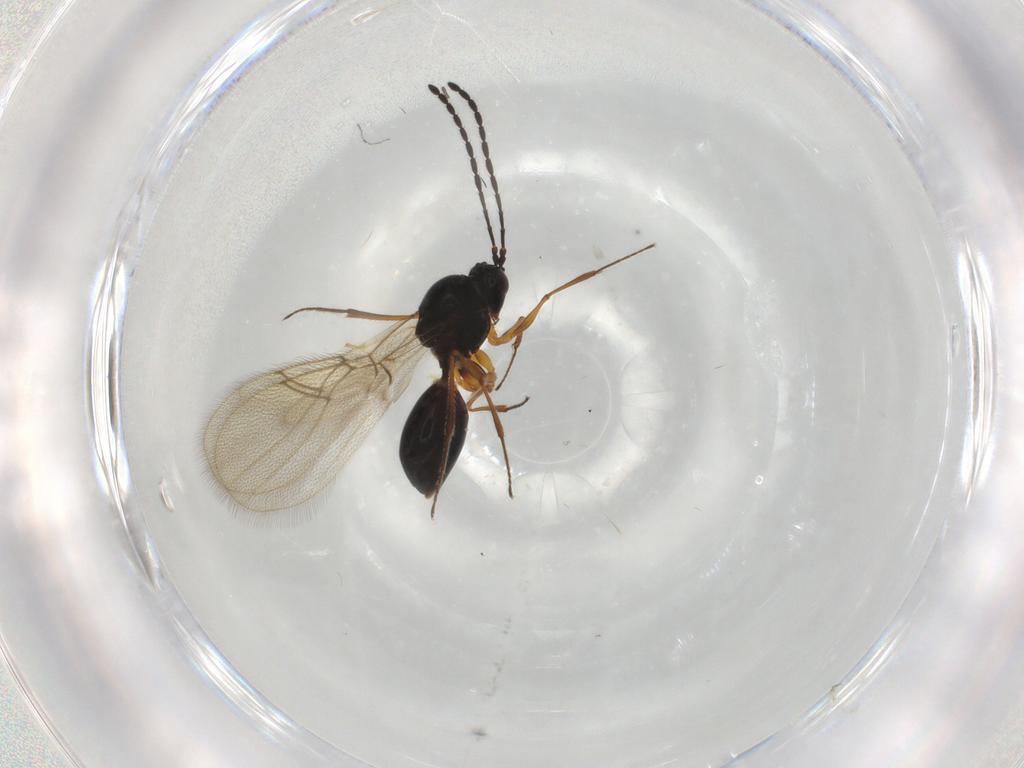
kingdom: Animalia
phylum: Arthropoda
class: Insecta
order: Hymenoptera
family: Figitidae
